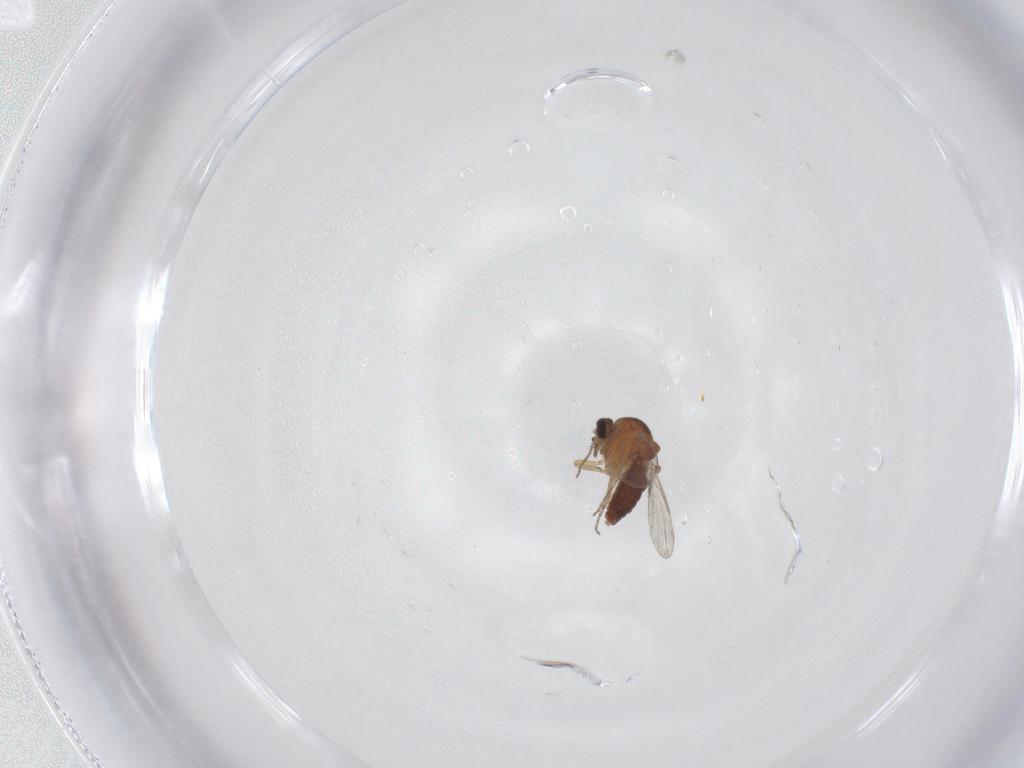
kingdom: Animalia
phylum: Arthropoda
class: Insecta
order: Diptera
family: Ceratopogonidae
